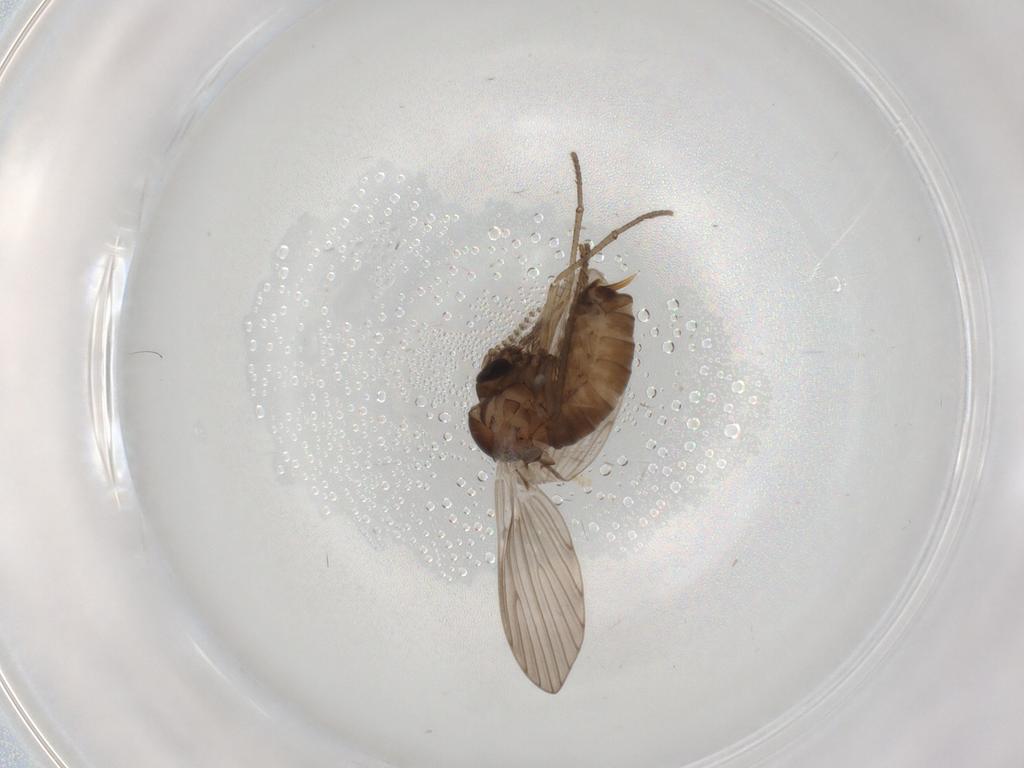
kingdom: Animalia
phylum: Arthropoda
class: Insecta
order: Diptera
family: Psychodidae
